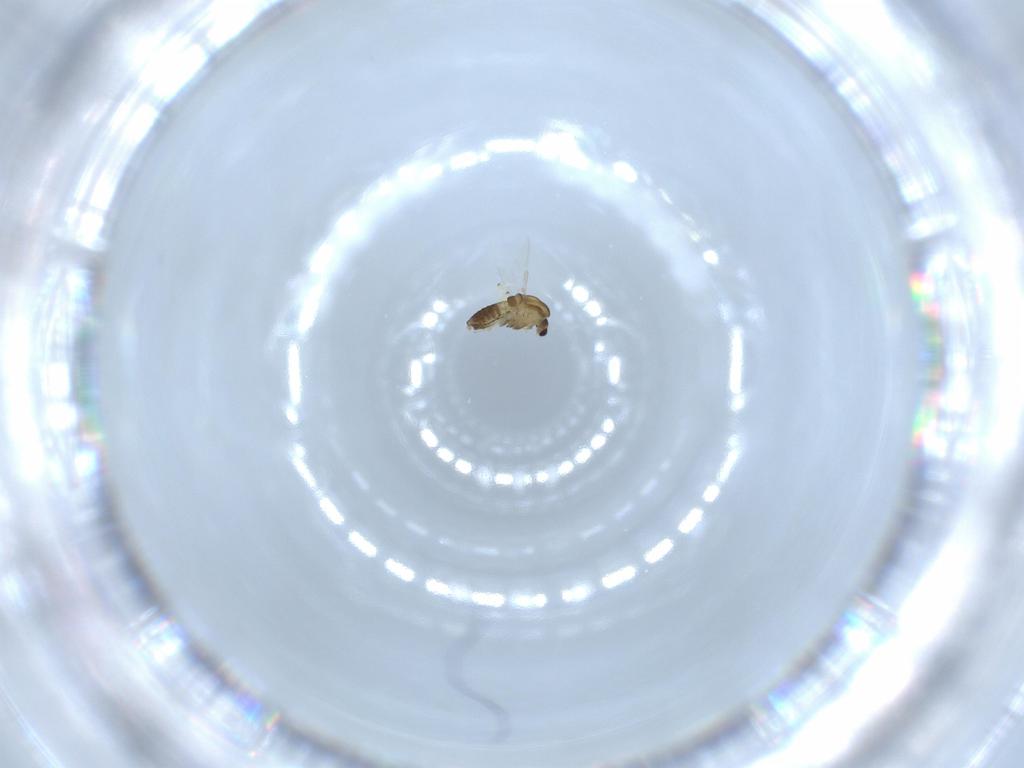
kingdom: Animalia
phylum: Arthropoda
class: Insecta
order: Diptera
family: Chironomidae
